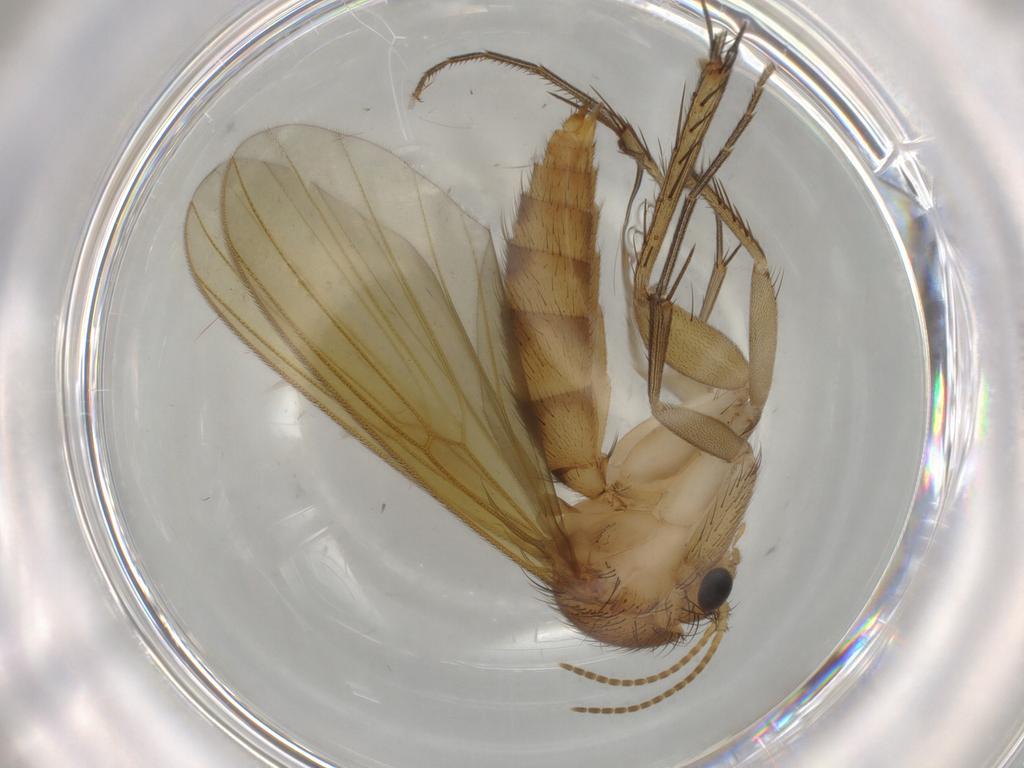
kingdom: Animalia
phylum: Arthropoda
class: Insecta
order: Diptera
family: Mycetophilidae
